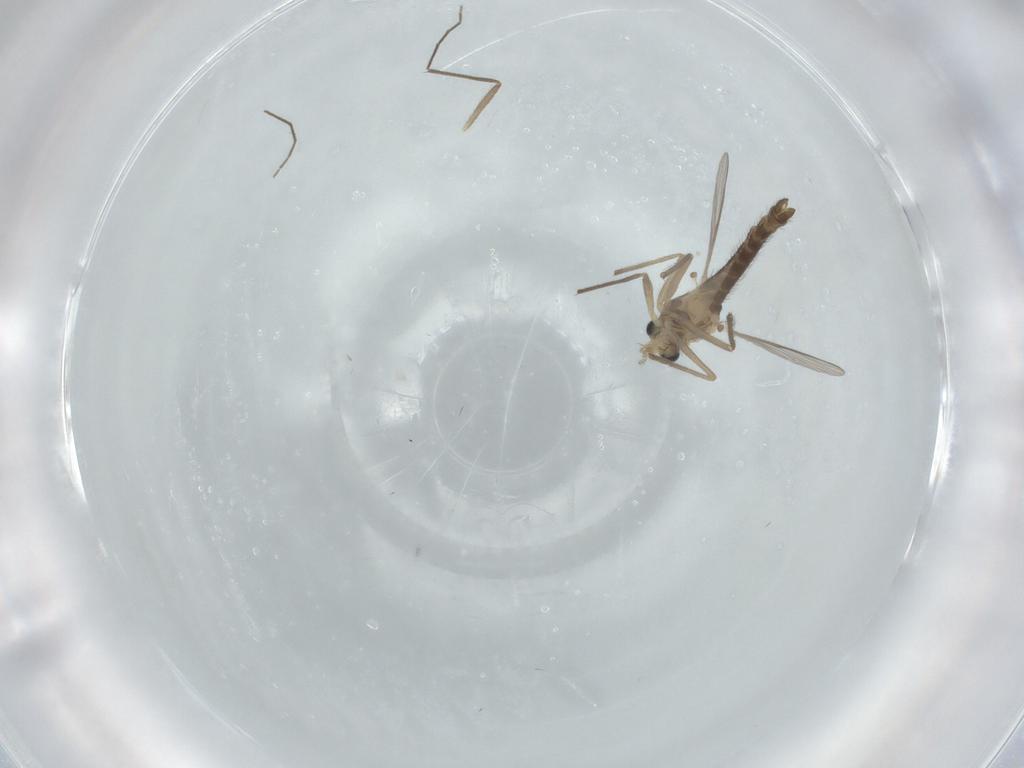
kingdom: Animalia
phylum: Arthropoda
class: Insecta
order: Diptera
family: Chironomidae
